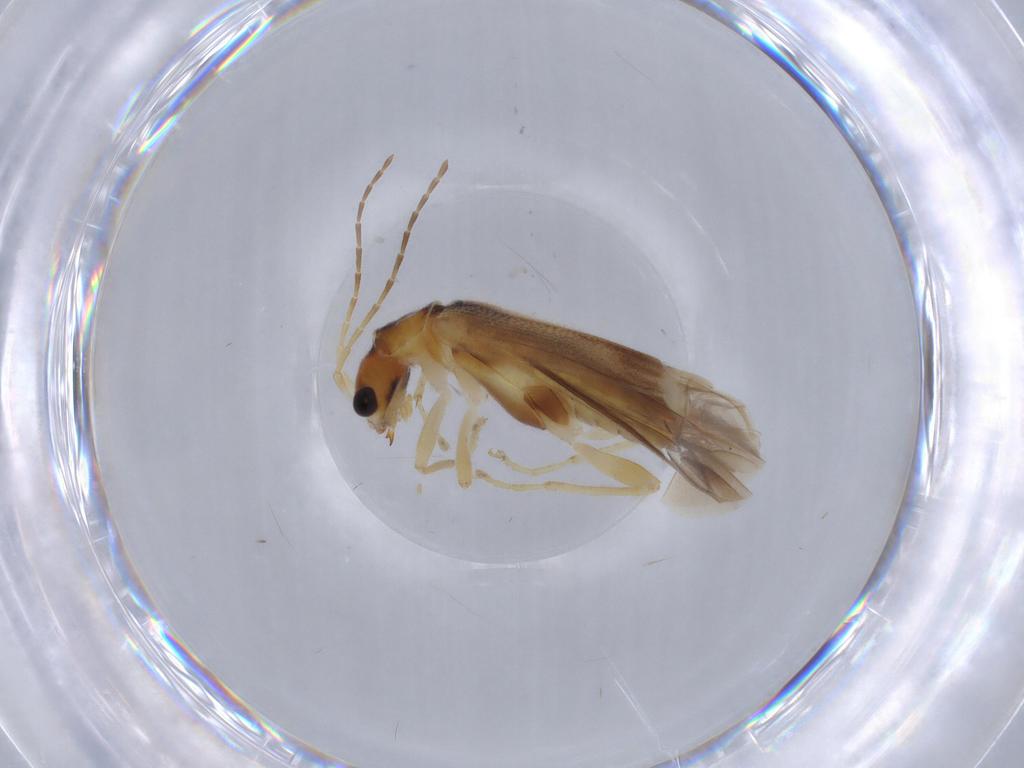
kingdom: Animalia
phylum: Arthropoda
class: Insecta
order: Coleoptera
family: Cantharidae
